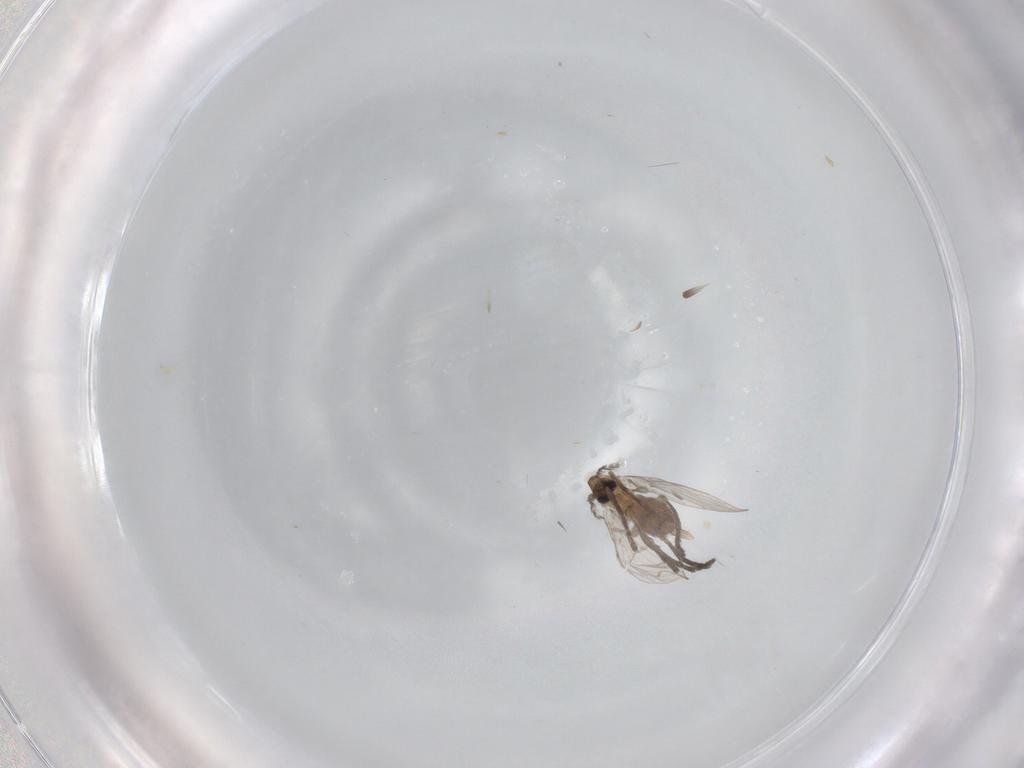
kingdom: Animalia
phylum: Arthropoda
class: Insecta
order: Diptera
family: Psychodidae
